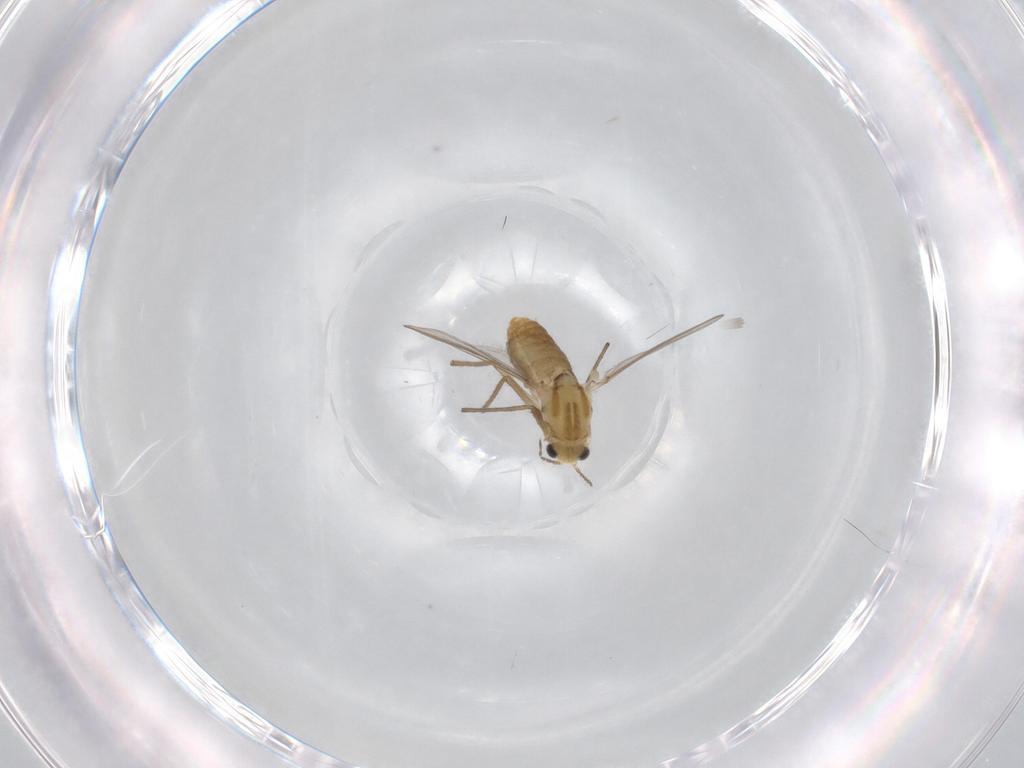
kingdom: Animalia
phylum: Arthropoda
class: Insecta
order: Diptera
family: Chironomidae
